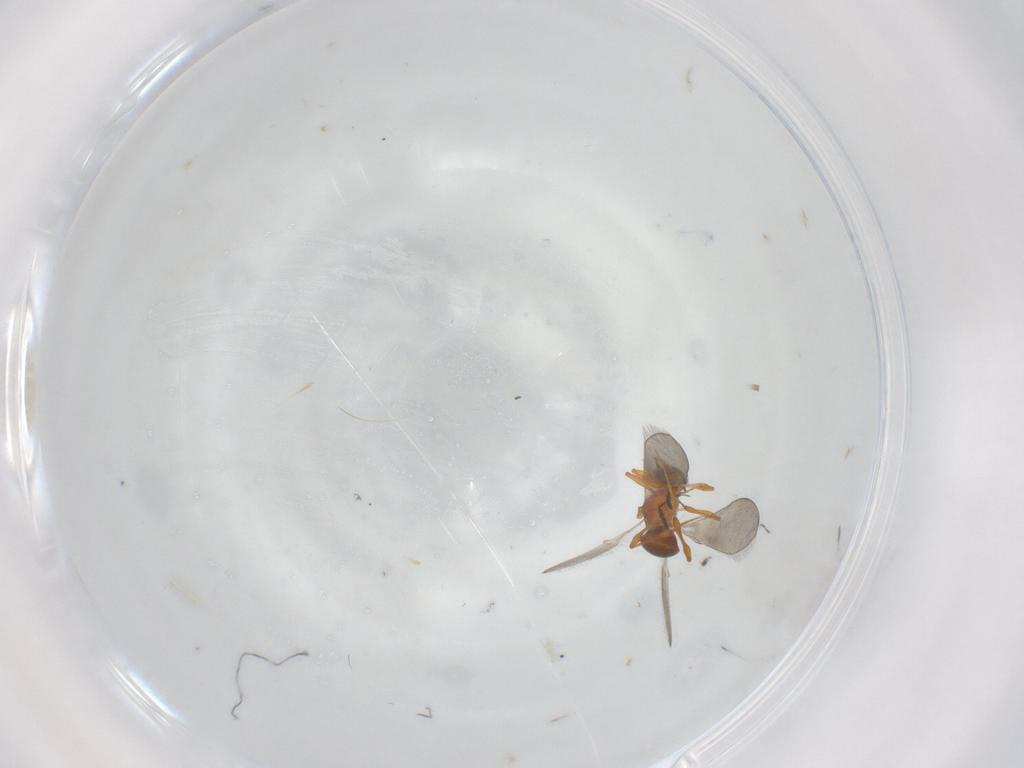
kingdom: Animalia
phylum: Arthropoda
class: Insecta
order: Hymenoptera
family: Platygastridae
